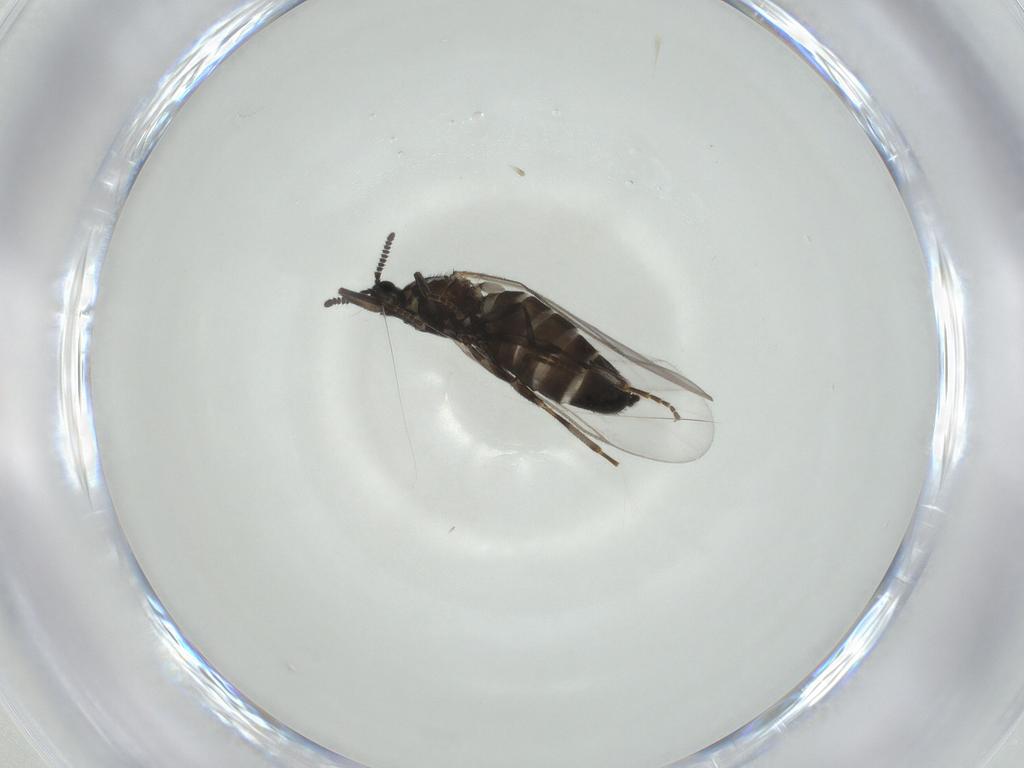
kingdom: Animalia
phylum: Arthropoda
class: Insecta
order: Diptera
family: Scatopsidae
